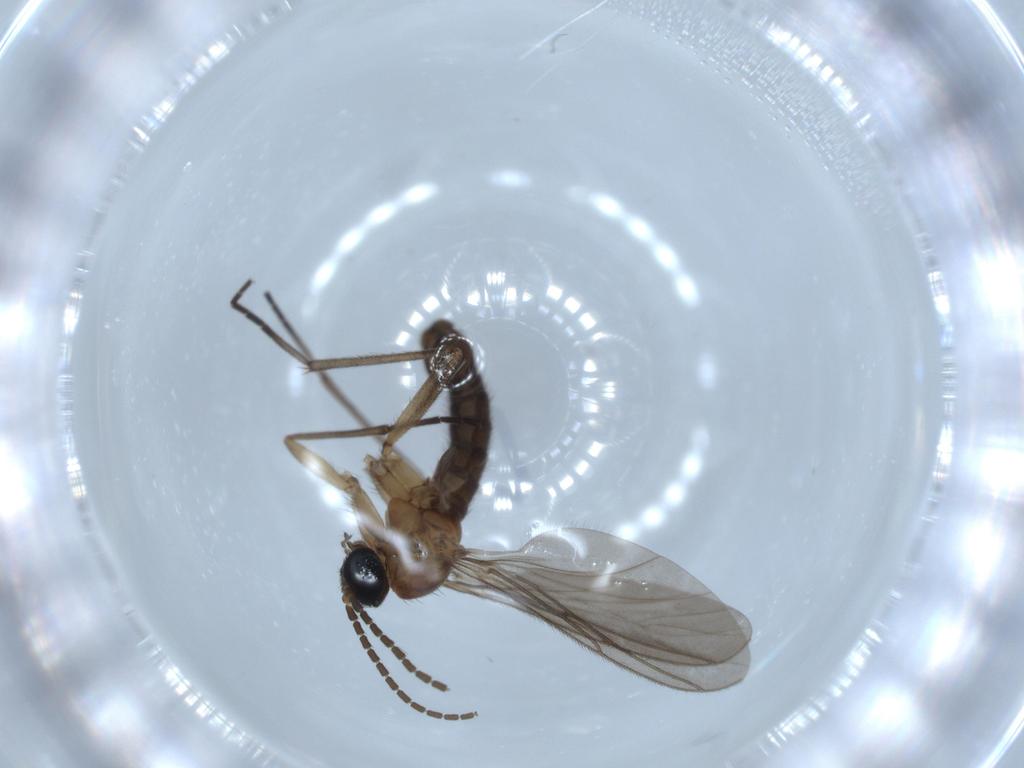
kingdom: Animalia
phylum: Arthropoda
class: Insecta
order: Diptera
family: Sciaridae
